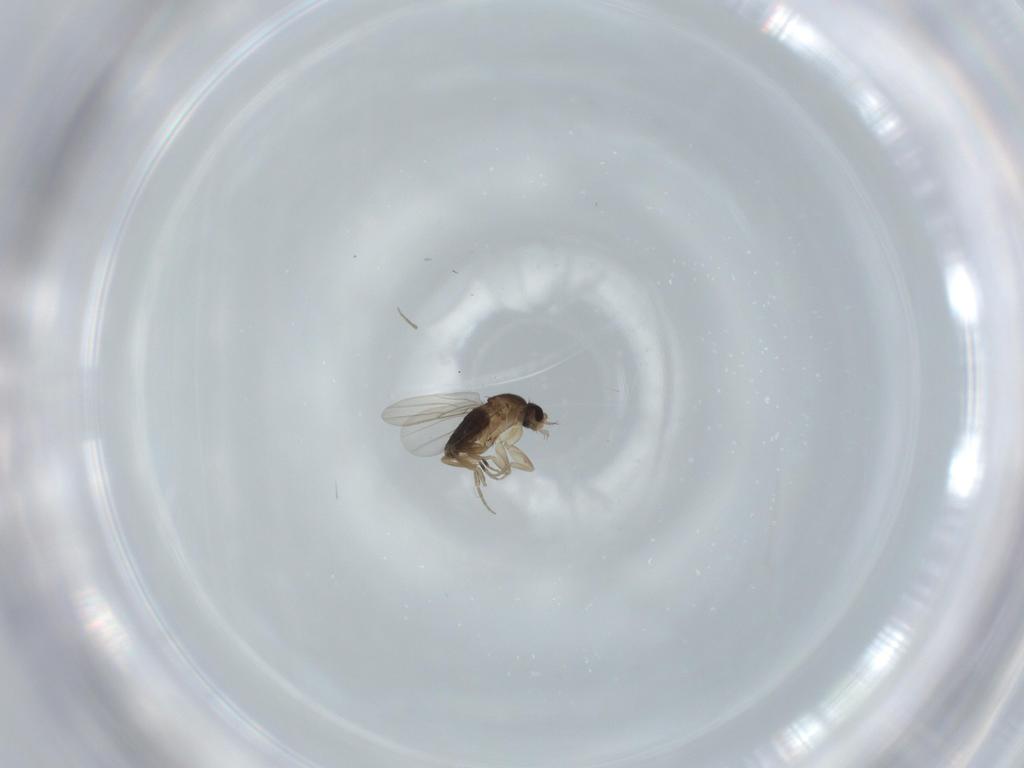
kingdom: Animalia
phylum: Arthropoda
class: Insecta
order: Diptera
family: Phoridae
